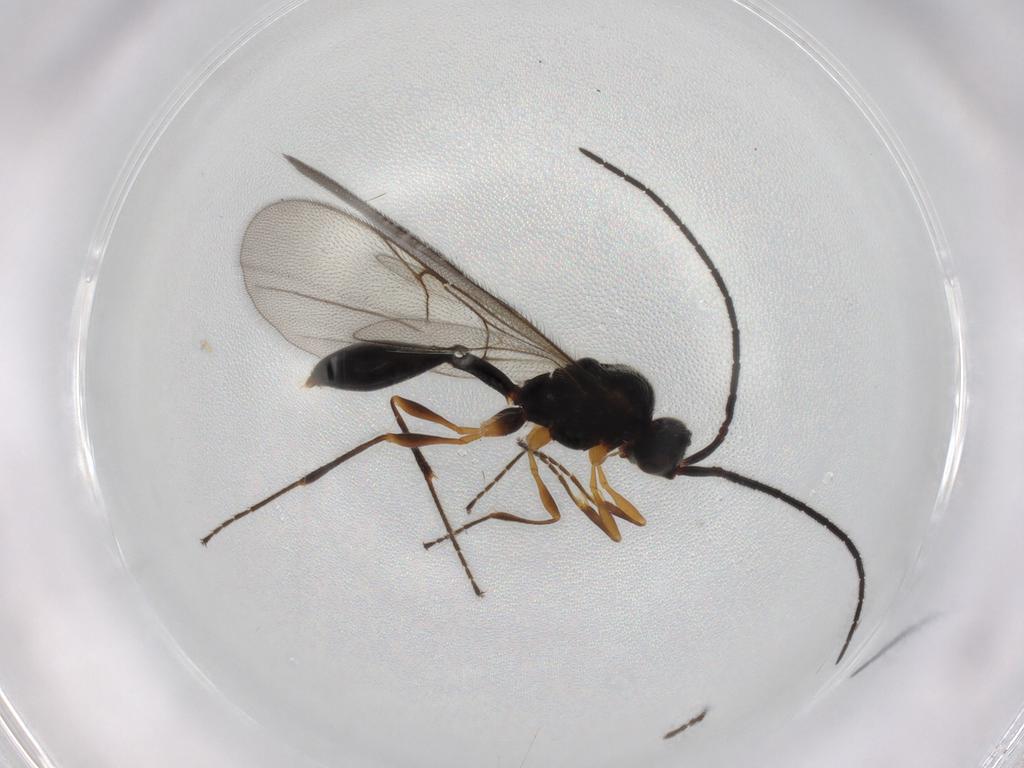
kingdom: Animalia
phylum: Arthropoda
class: Insecta
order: Hymenoptera
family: Diapriidae
